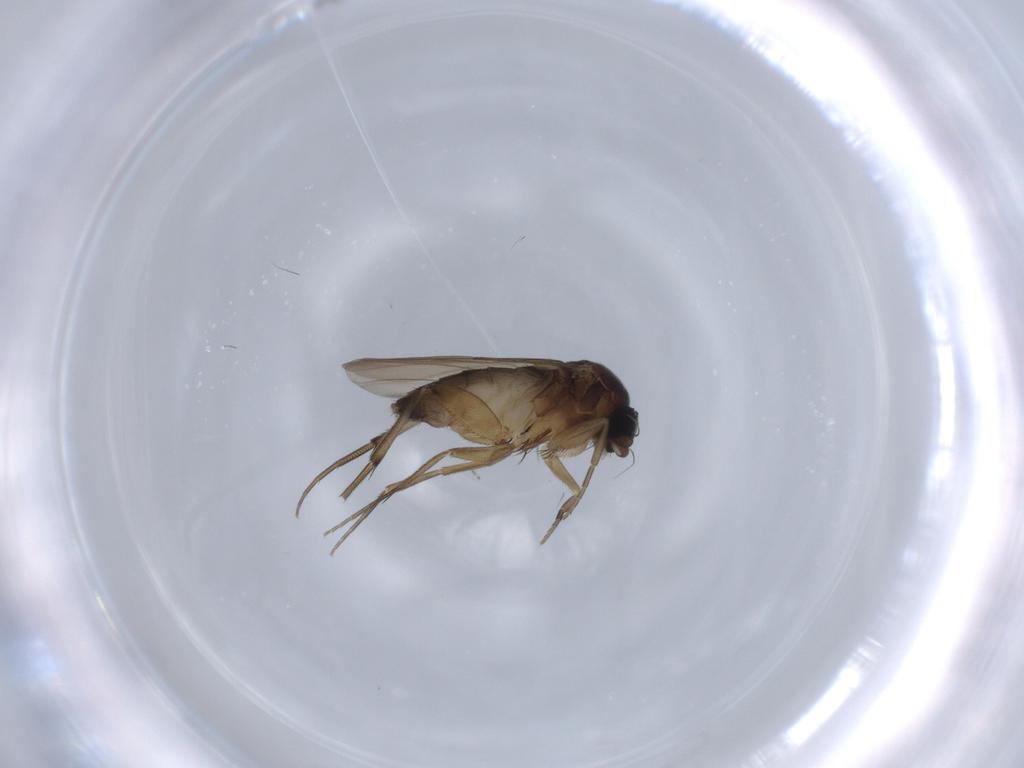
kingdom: Animalia
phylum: Arthropoda
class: Insecta
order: Diptera
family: Phoridae
